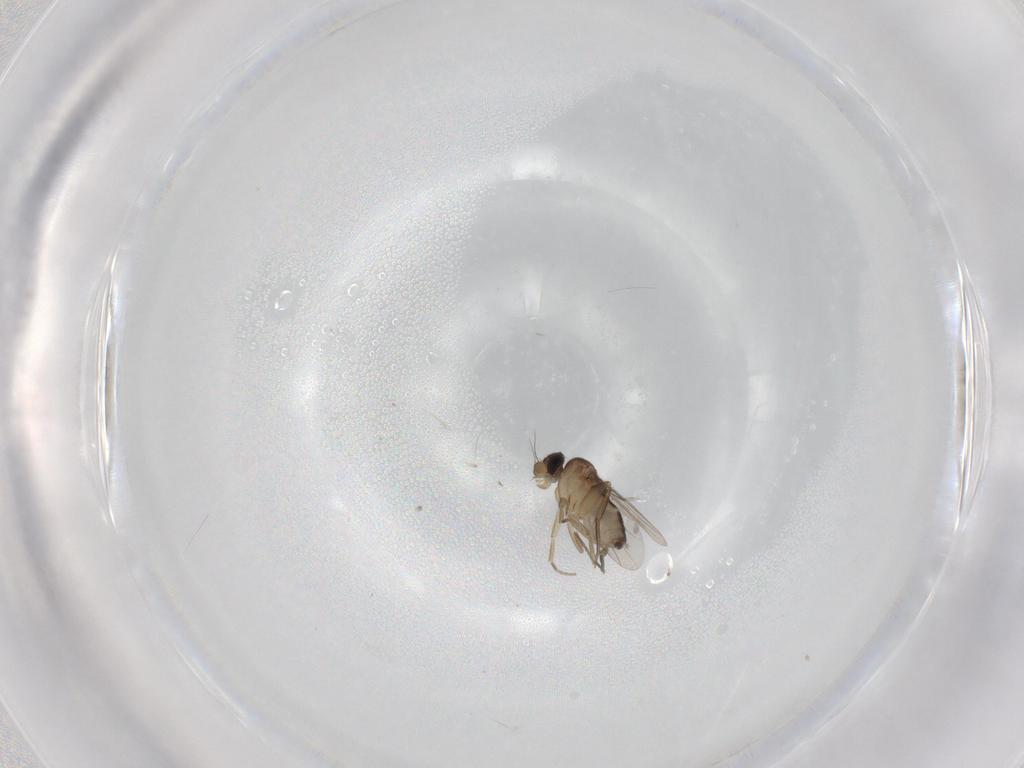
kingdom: Animalia
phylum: Arthropoda
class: Insecta
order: Diptera
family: Phoridae
